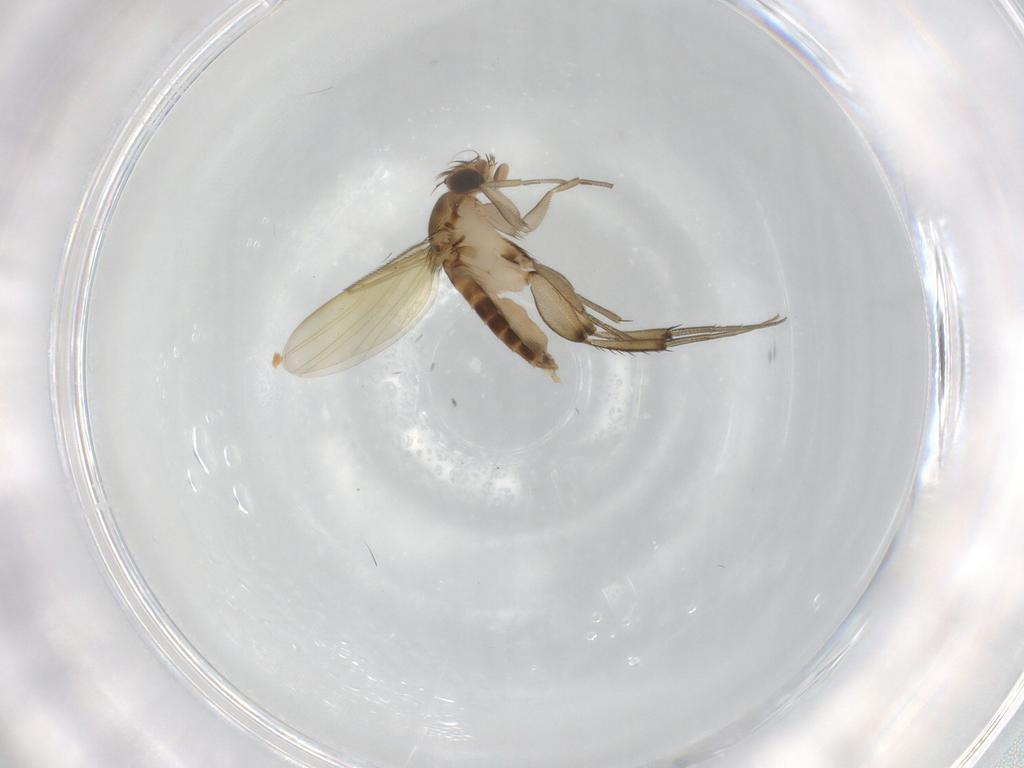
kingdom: Animalia
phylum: Arthropoda
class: Insecta
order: Diptera
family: Phoridae
